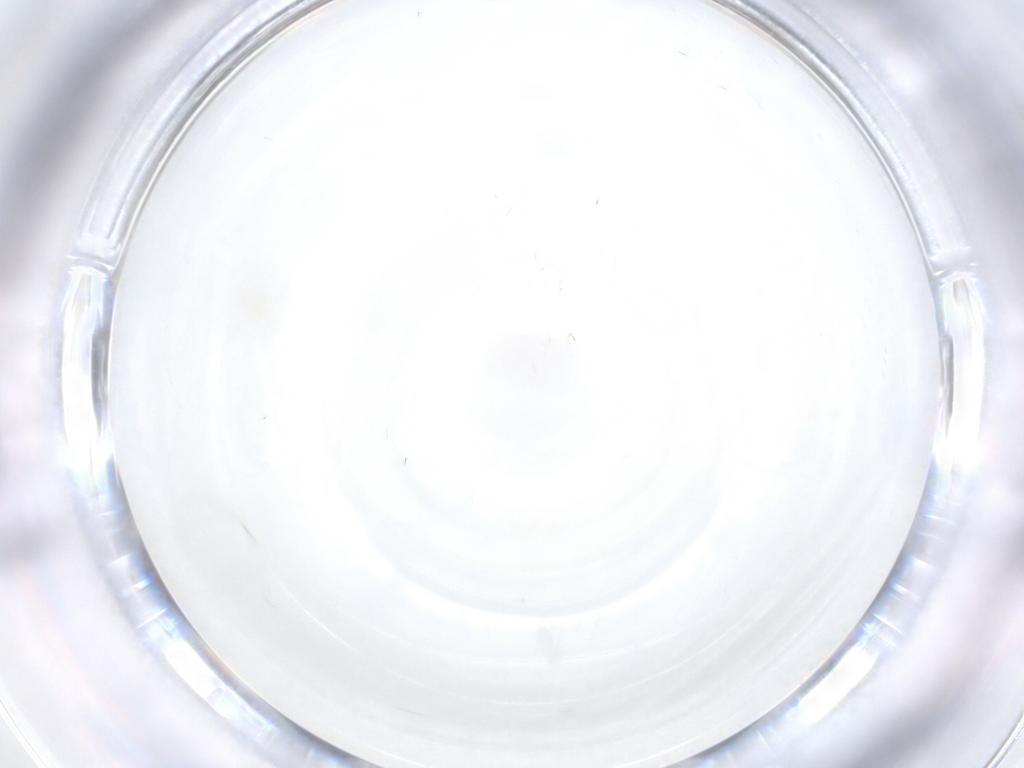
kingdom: Animalia
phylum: Arthropoda
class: Insecta
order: Hymenoptera
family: Platygastridae
